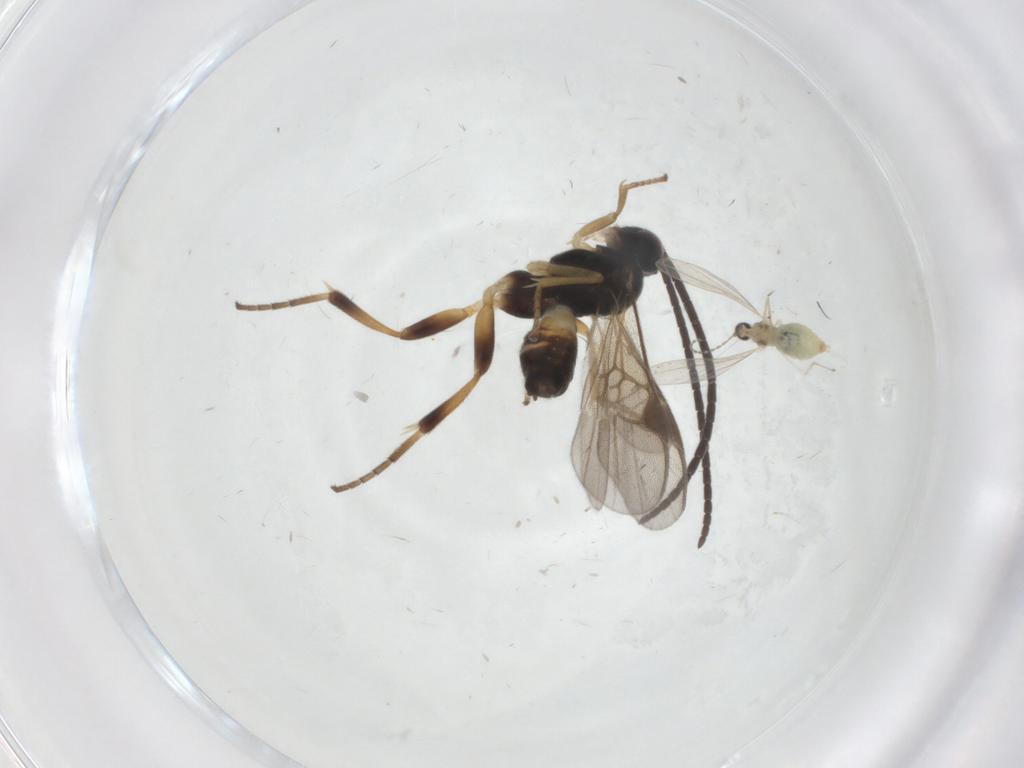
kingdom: Animalia
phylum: Arthropoda
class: Insecta
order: Diptera
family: Cecidomyiidae
